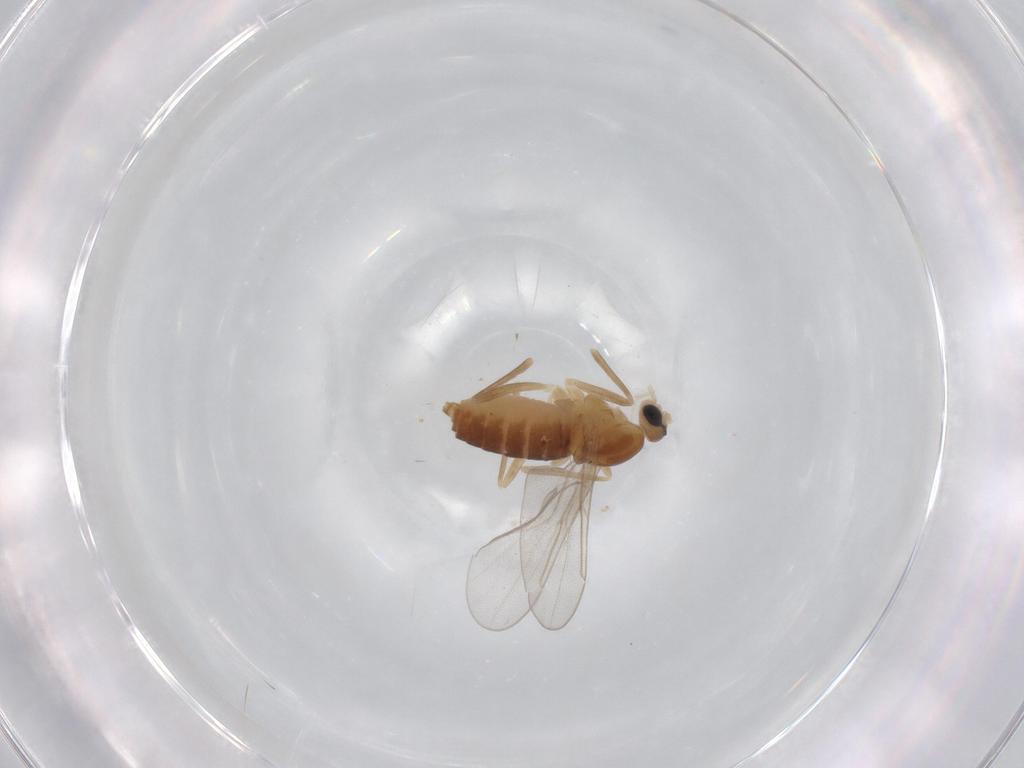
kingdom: Animalia
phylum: Arthropoda
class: Insecta
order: Diptera
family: Cecidomyiidae
